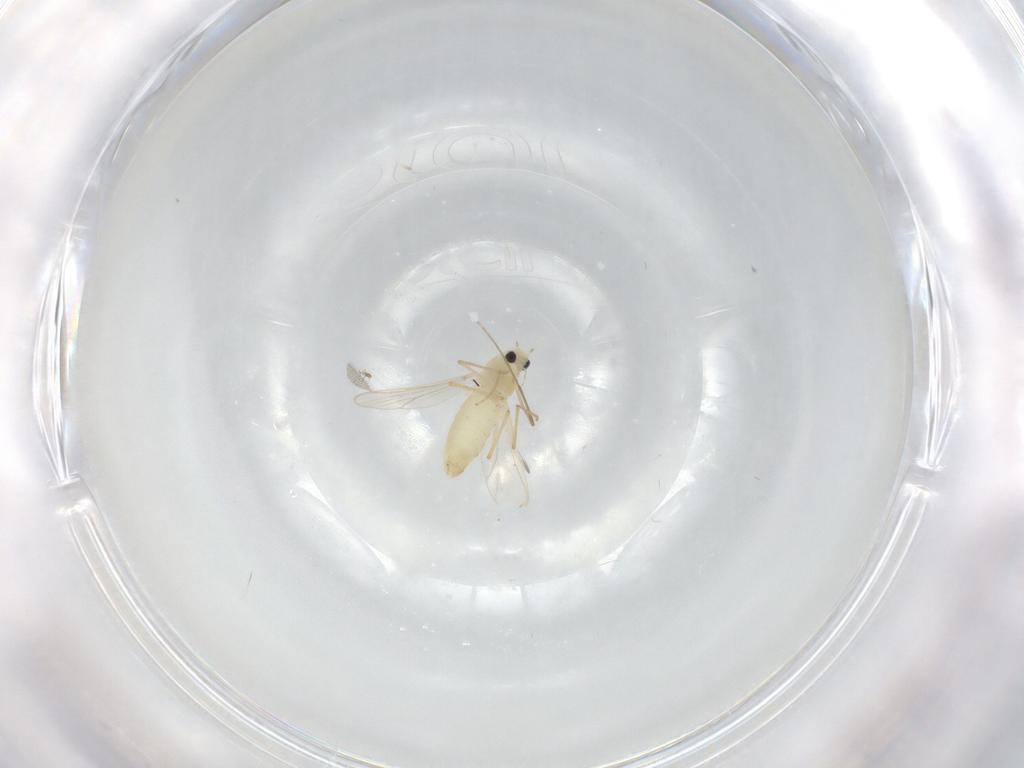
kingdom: Animalia
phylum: Arthropoda
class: Insecta
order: Diptera
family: Chironomidae
